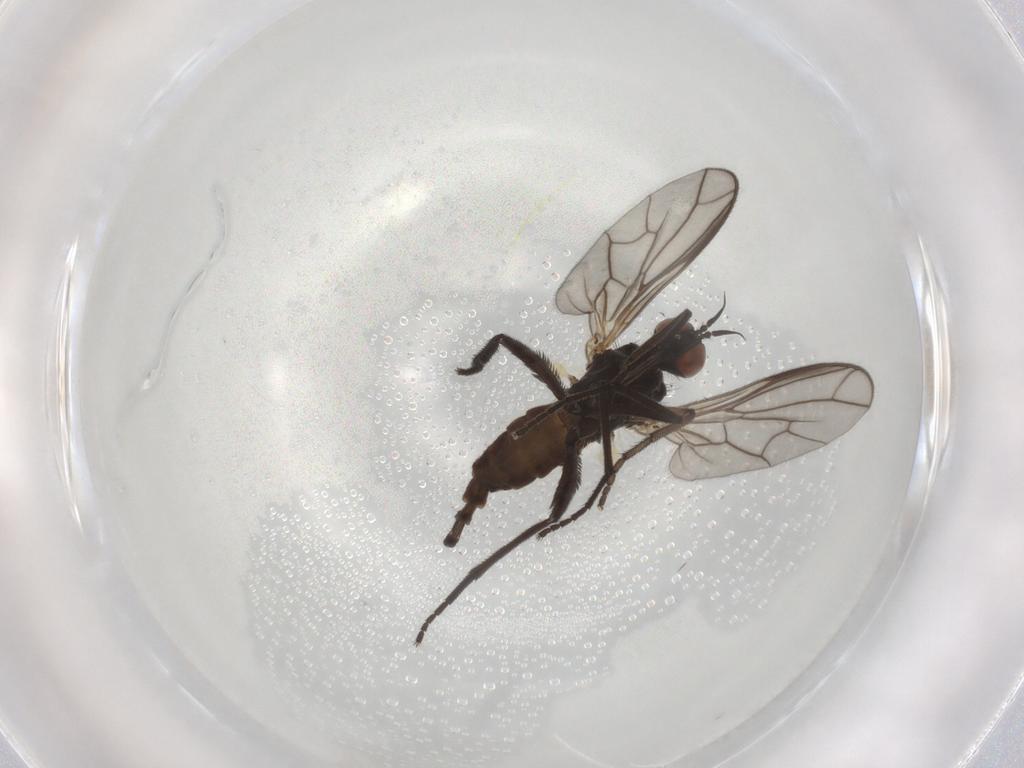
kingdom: Animalia
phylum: Arthropoda
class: Insecta
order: Diptera
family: Empididae
